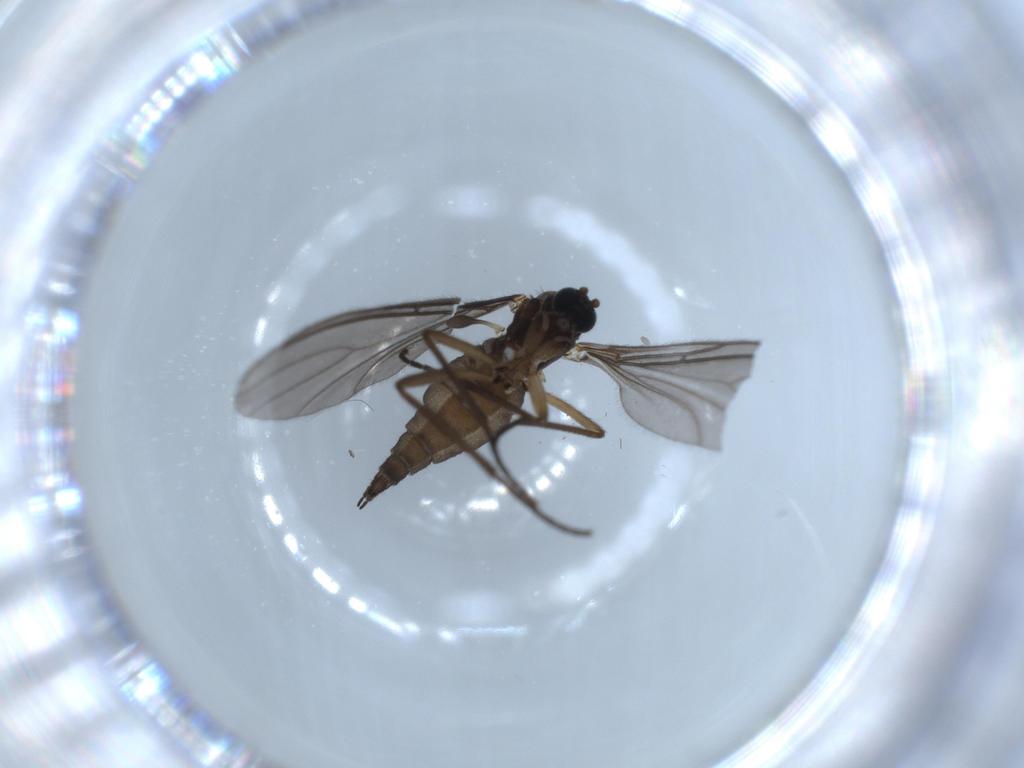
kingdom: Animalia
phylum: Arthropoda
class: Insecta
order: Diptera
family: Sciaridae
